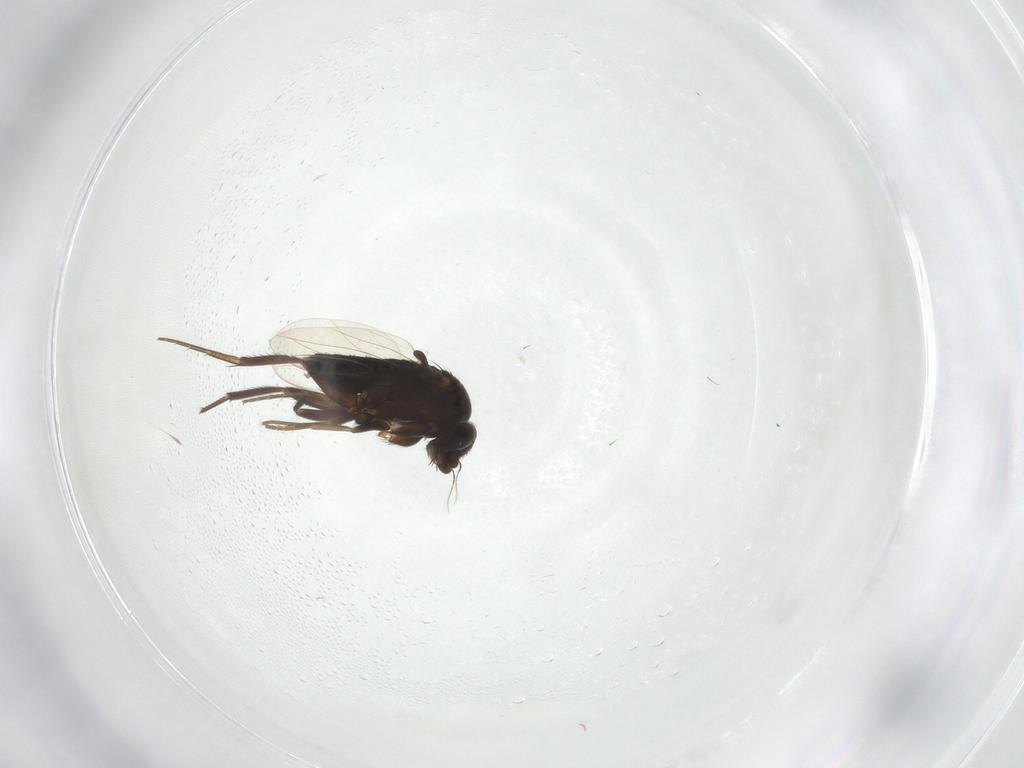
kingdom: Animalia
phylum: Arthropoda
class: Insecta
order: Diptera
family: Phoridae
